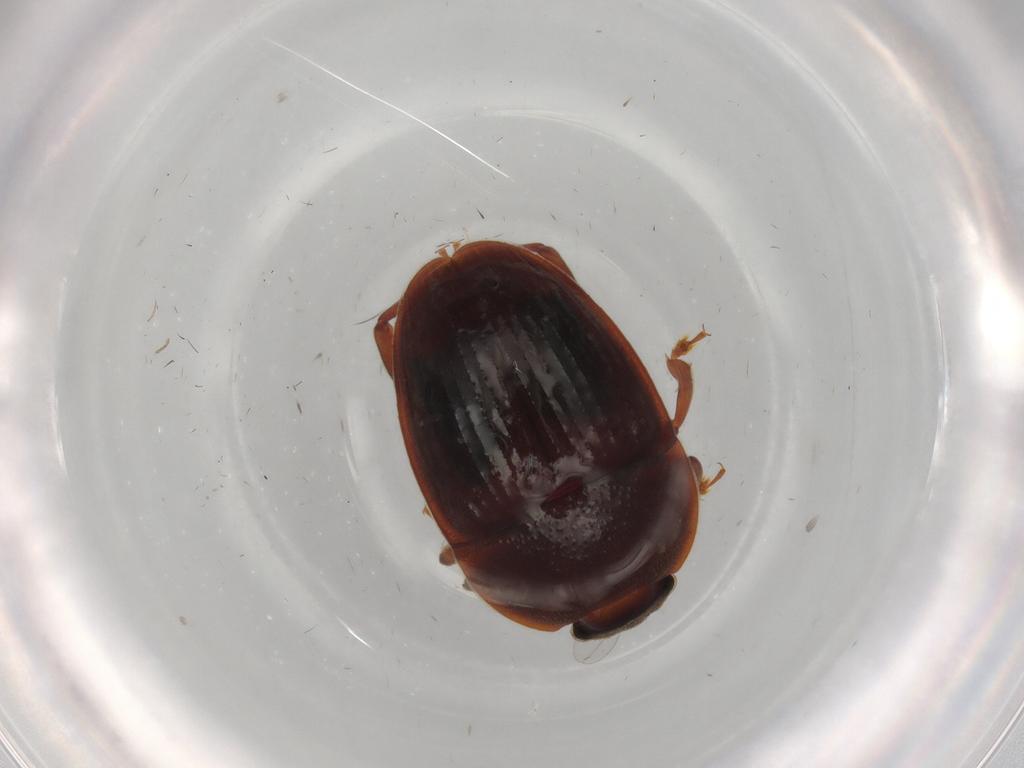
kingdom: Animalia
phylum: Arthropoda
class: Insecta
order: Coleoptera
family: Nitidulidae
